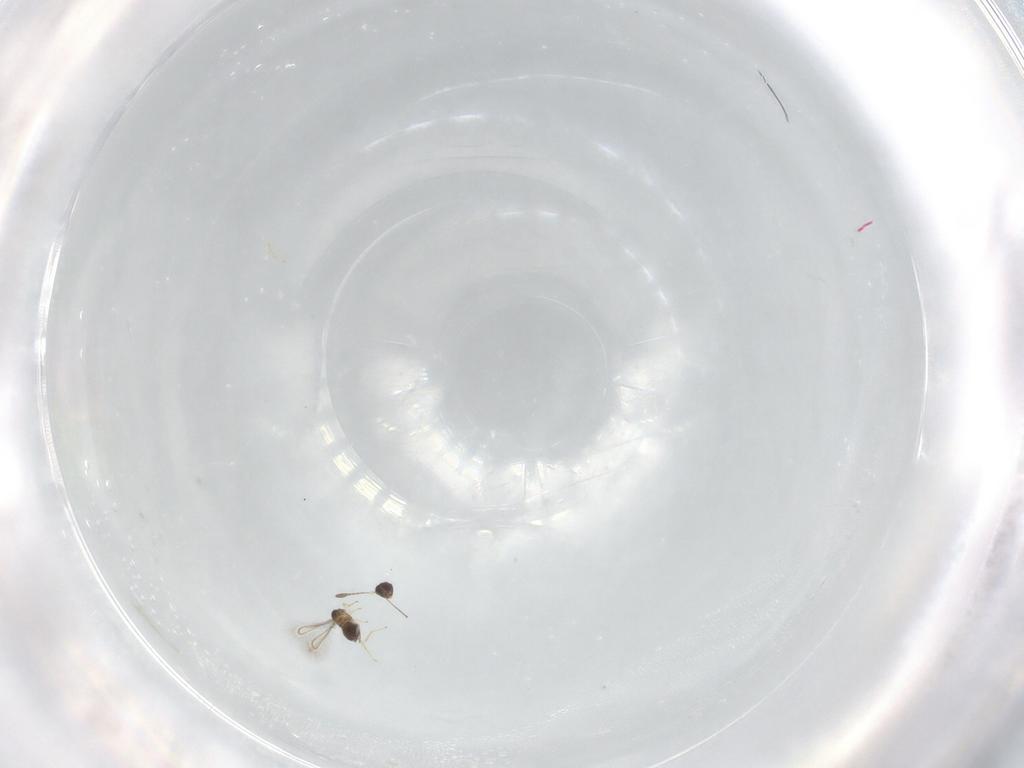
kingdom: Animalia
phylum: Arthropoda
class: Insecta
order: Hymenoptera
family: Mymaridae
